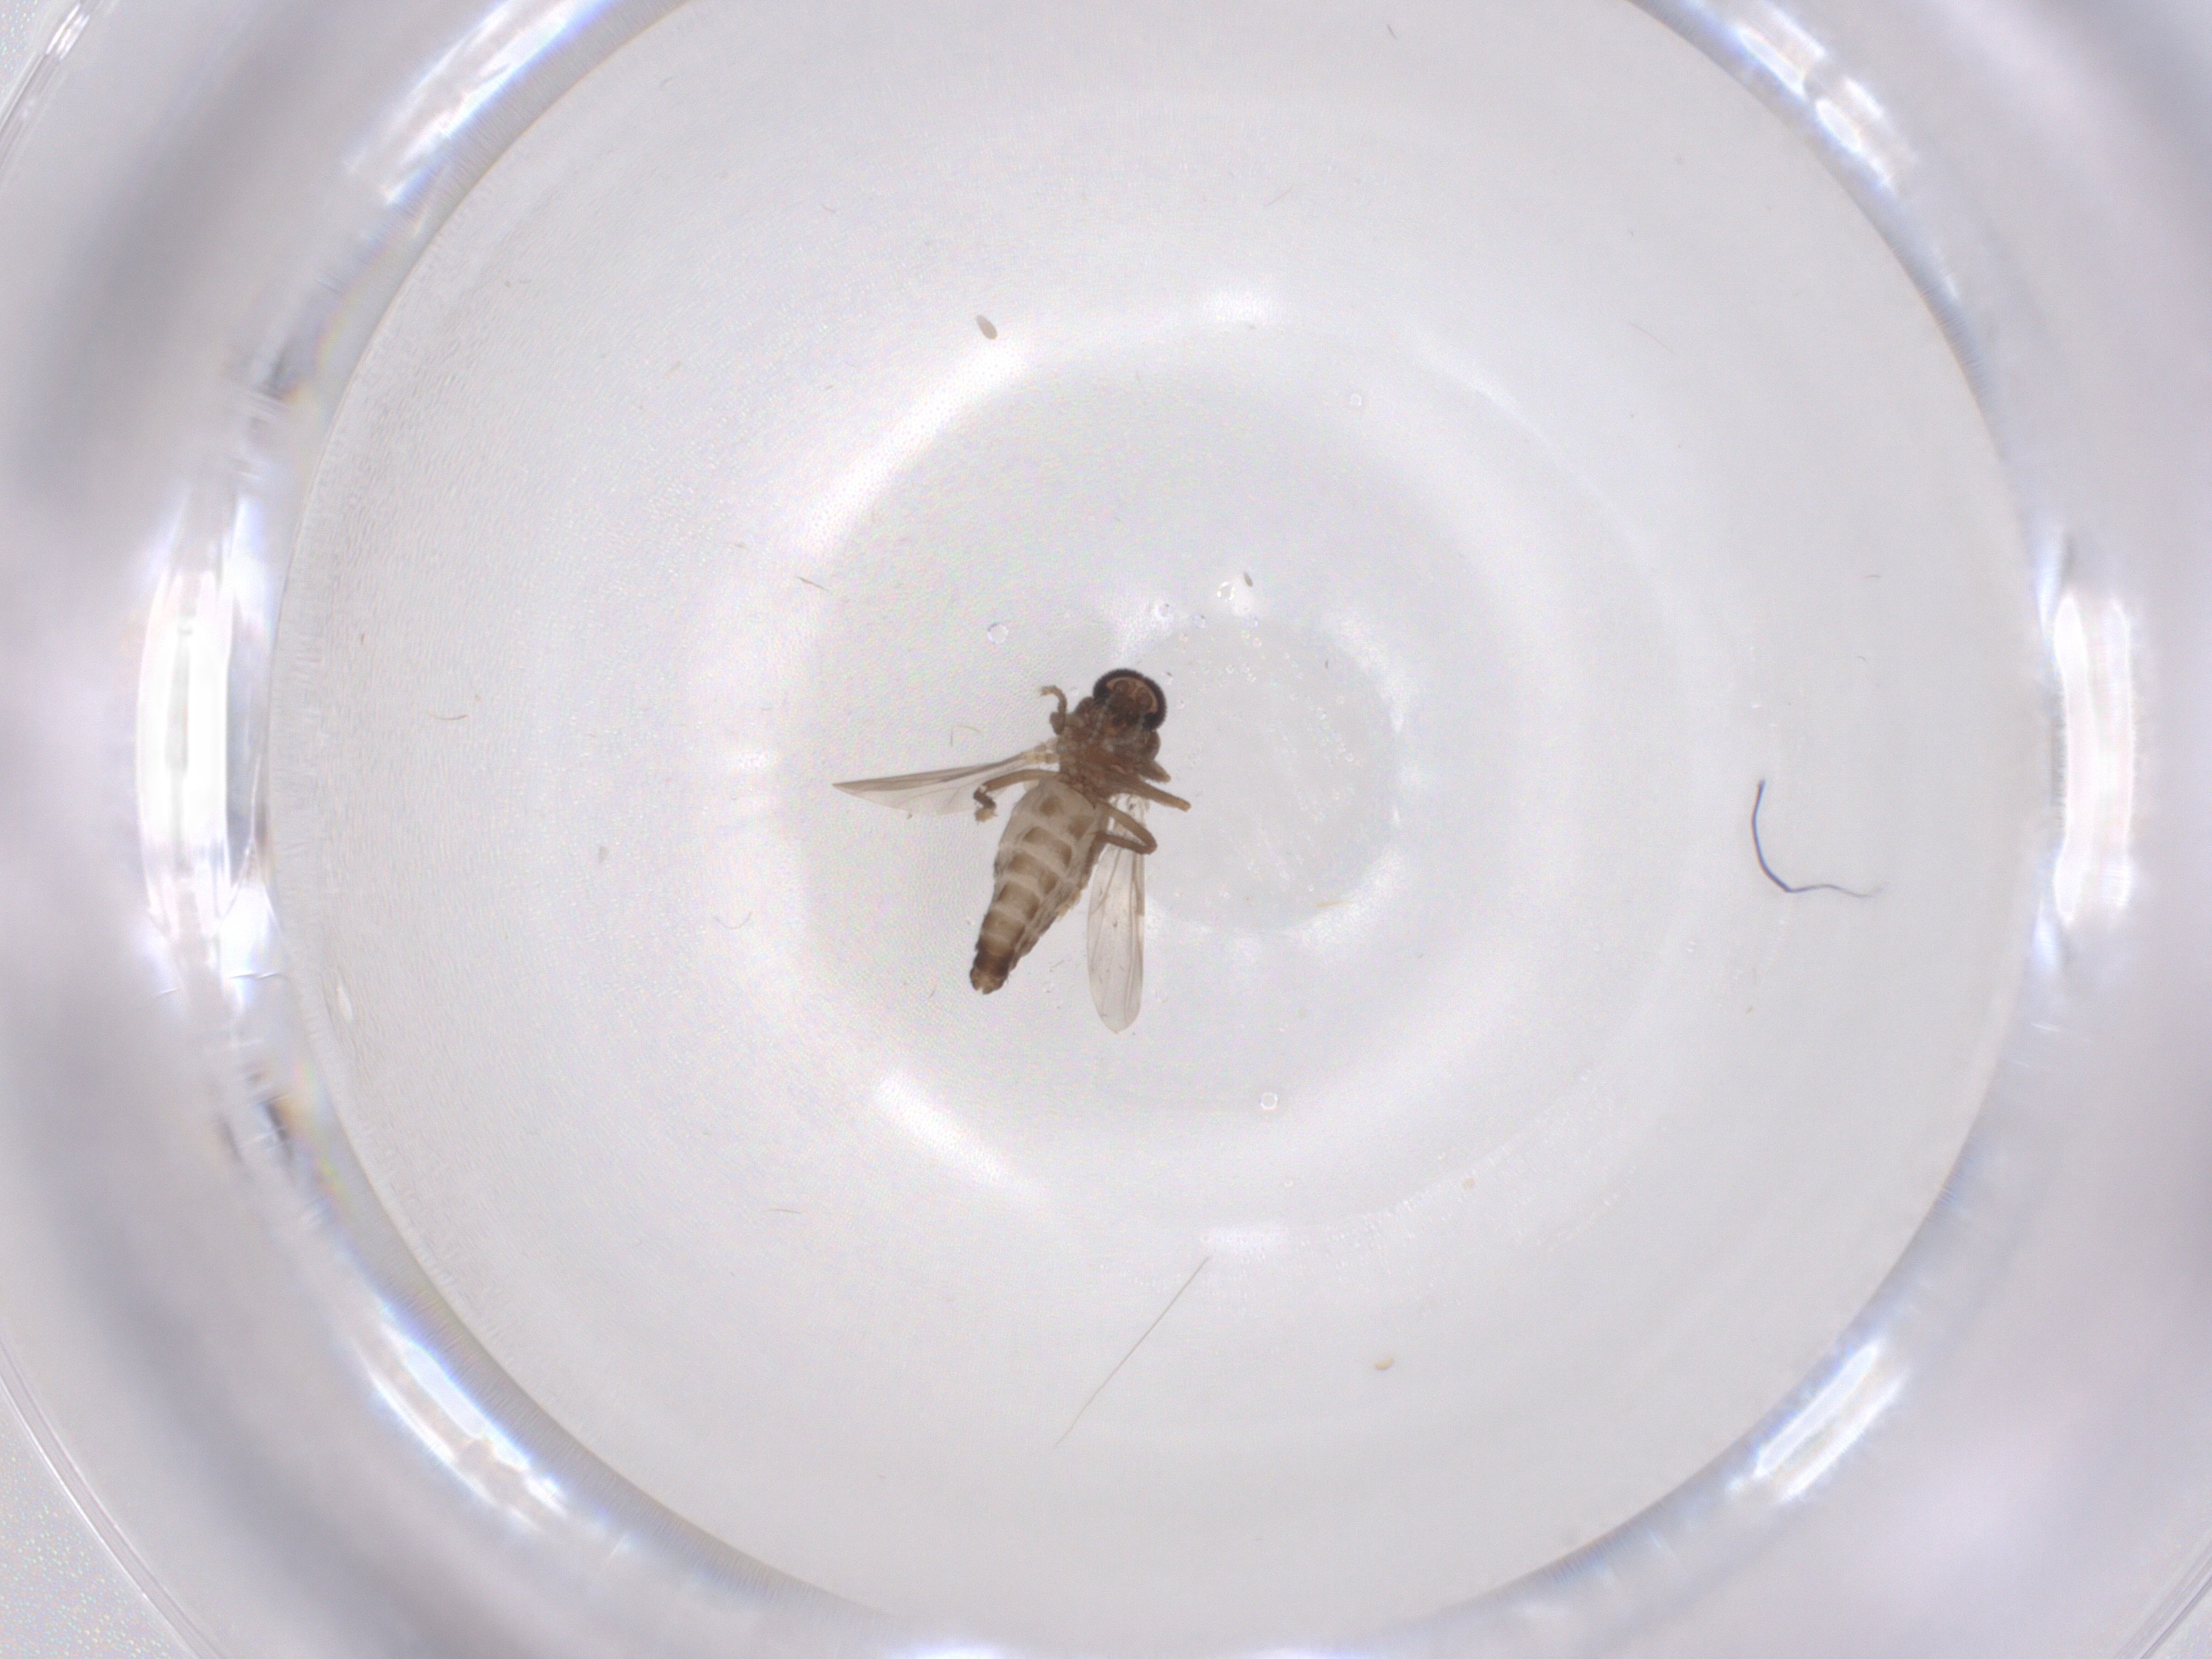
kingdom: Animalia
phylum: Arthropoda
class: Insecta
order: Diptera
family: Ceratopogonidae
